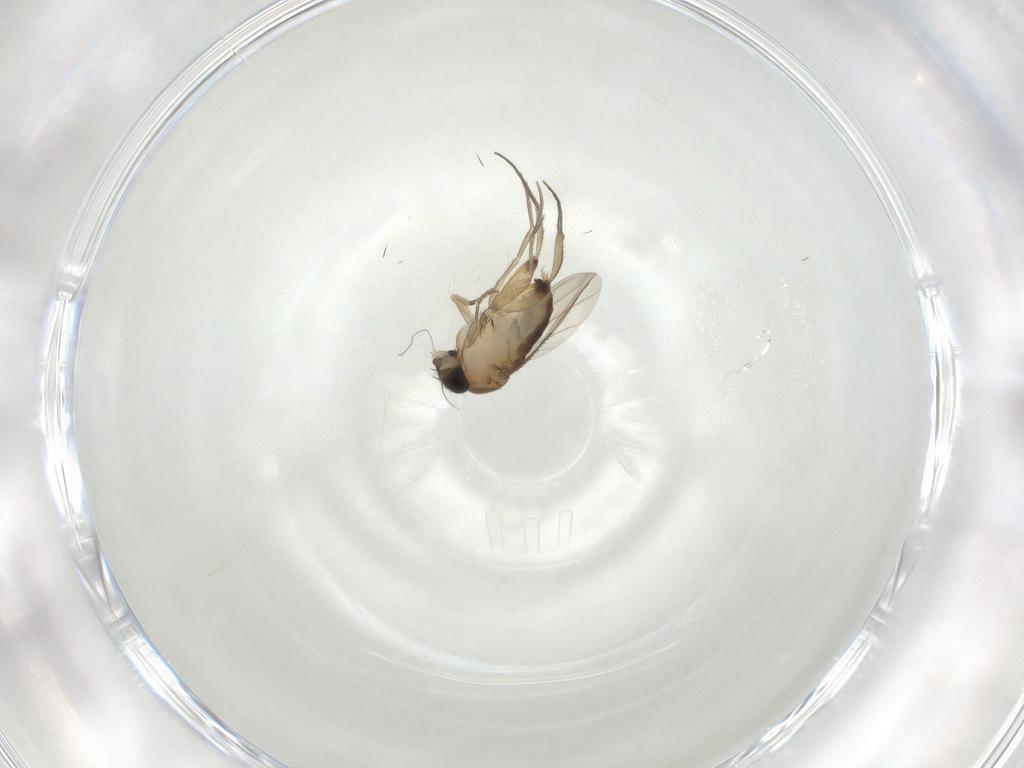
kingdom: Animalia
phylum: Arthropoda
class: Insecta
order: Diptera
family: Phoridae
